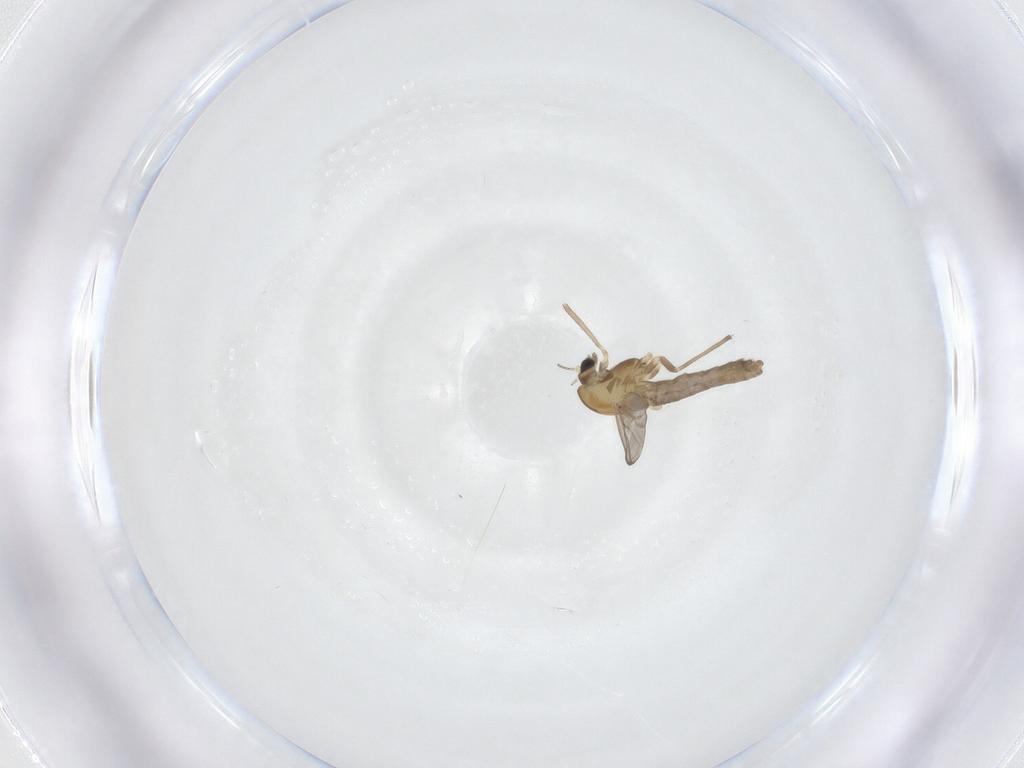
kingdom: Animalia
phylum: Arthropoda
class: Insecta
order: Diptera
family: Chironomidae
